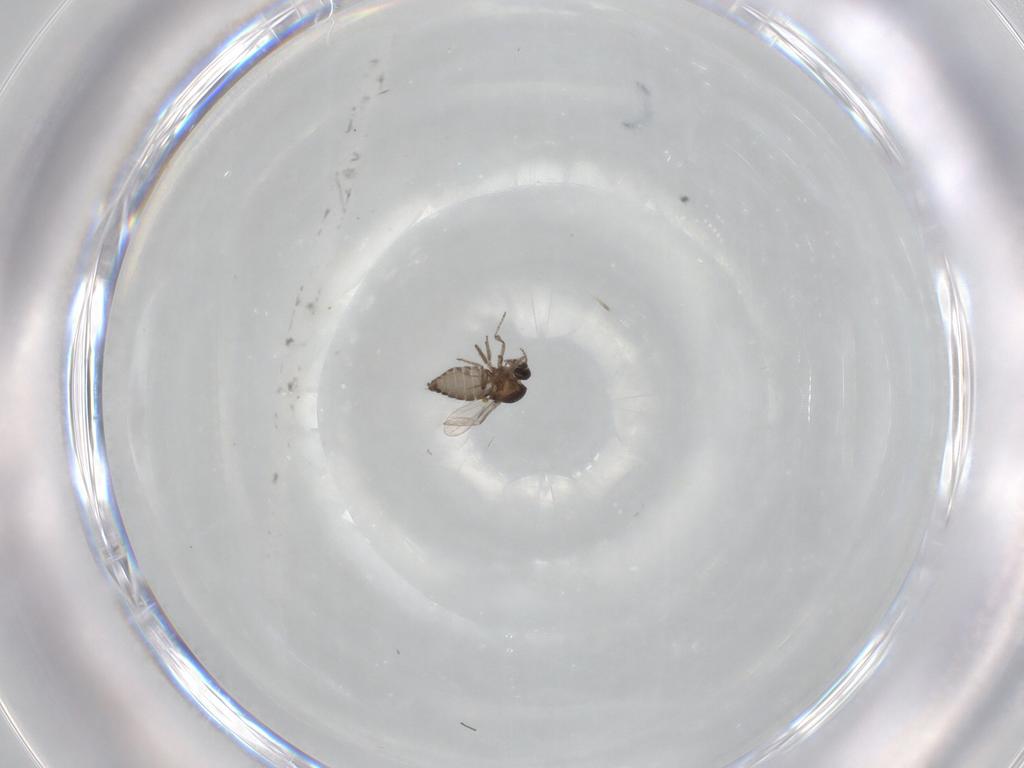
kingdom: Animalia
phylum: Arthropoda
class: Insecta
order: Diptera
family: Ceratopogonidae
